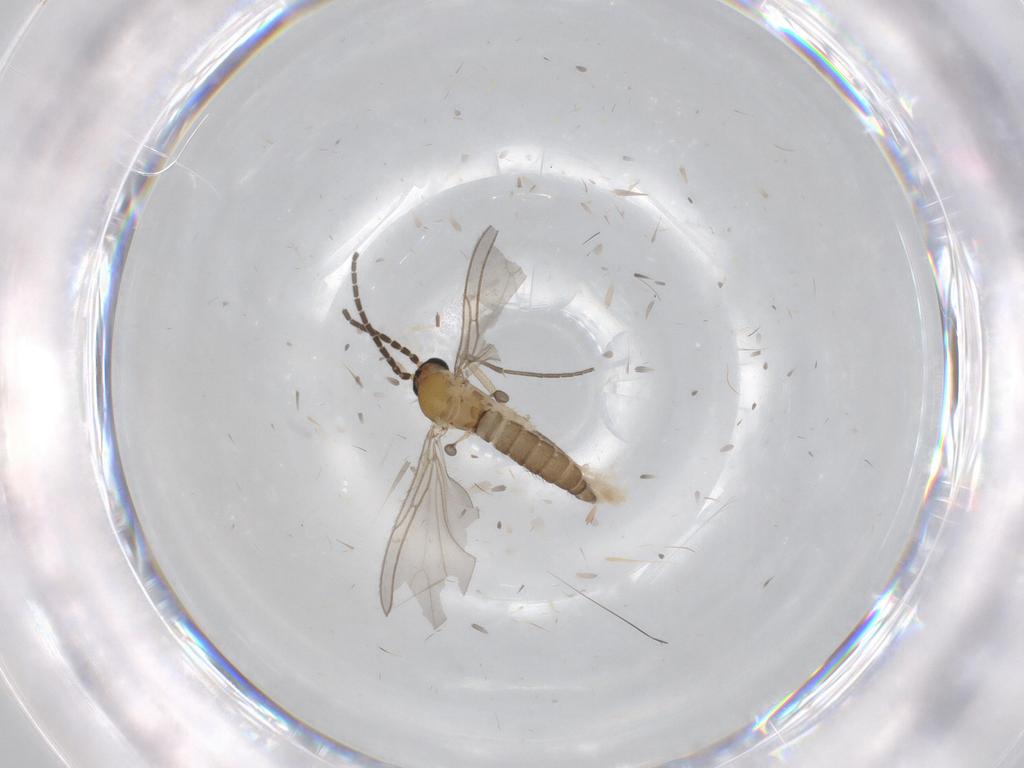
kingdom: Animalia
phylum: Arthropoda
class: Insecta
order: Diptera
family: Sciaridae
